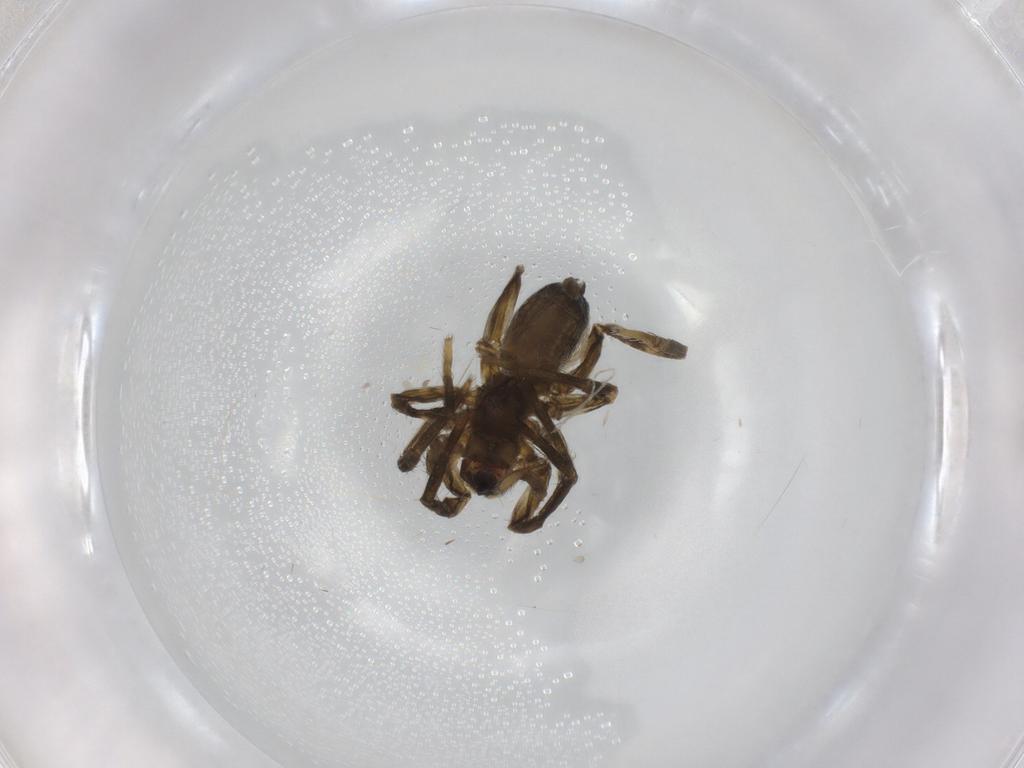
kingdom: Animalia
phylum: Arthropoda
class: Arachnida
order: Araneae
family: Lycosidae
